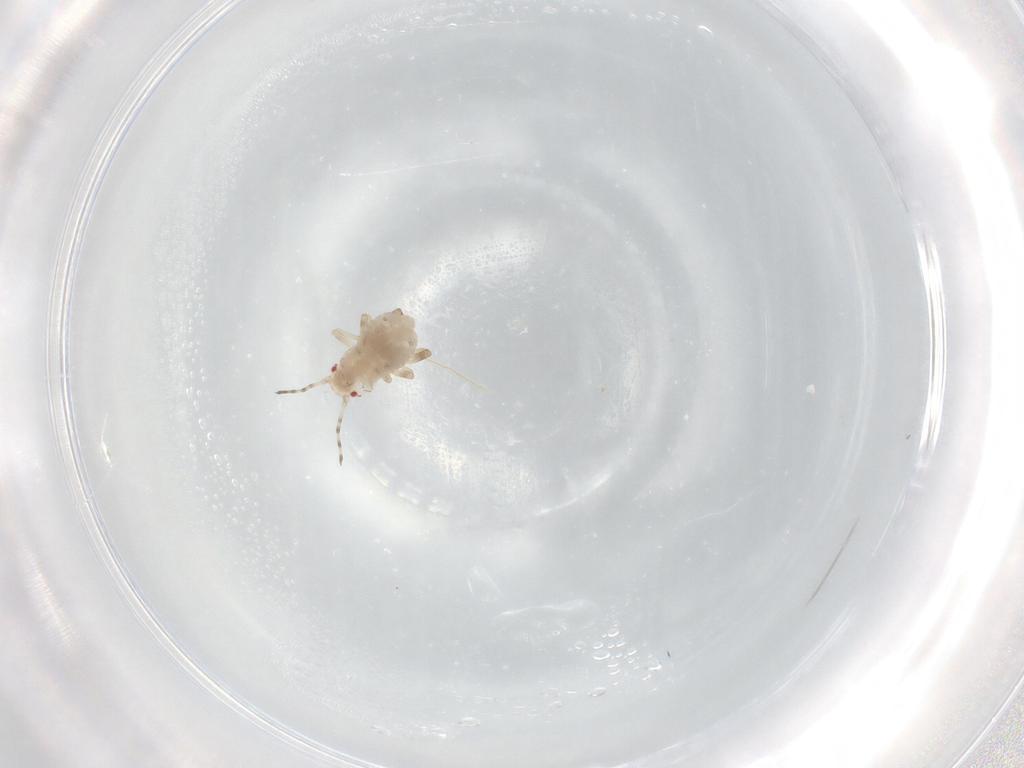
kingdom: Animalia
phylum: Arthropoda
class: Insecta
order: Hemiptera
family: Aphididae
